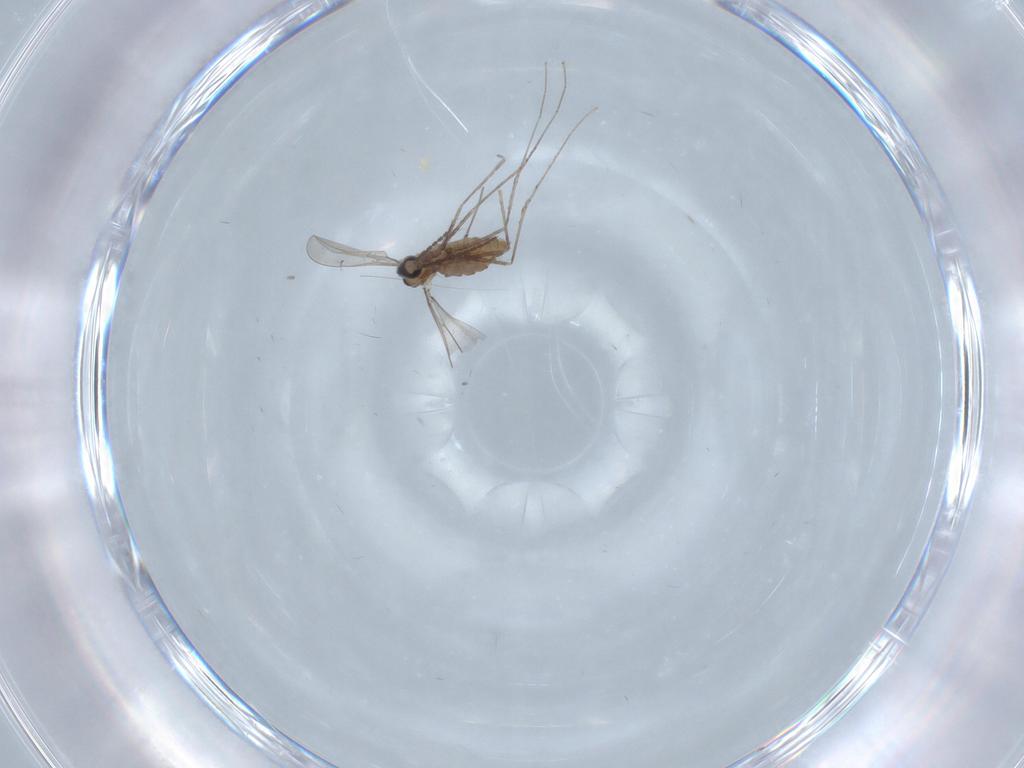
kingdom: Animalia
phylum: Arthropoda
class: Insecta
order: Diptera
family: Cecidomyiidae
